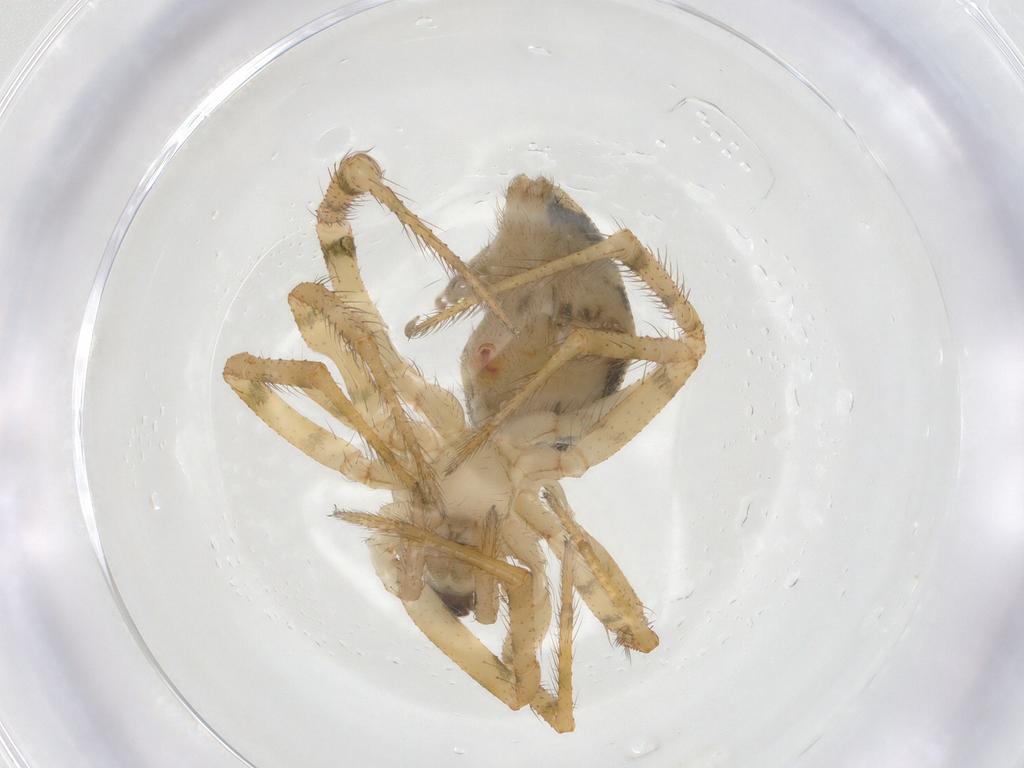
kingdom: Animalia
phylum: Arthropoda
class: Arachnida
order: Araneae
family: Theridiidae
